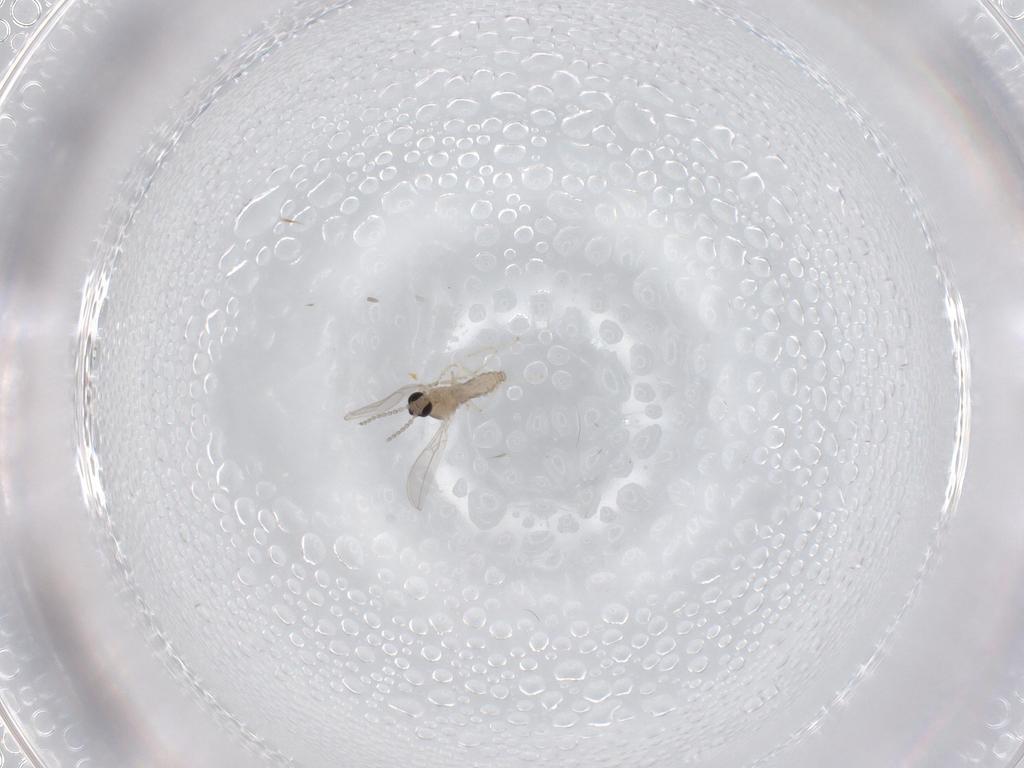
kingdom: Animalia
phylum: Arthropoda
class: Insecta
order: Diptera
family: Cecidomyiidae
